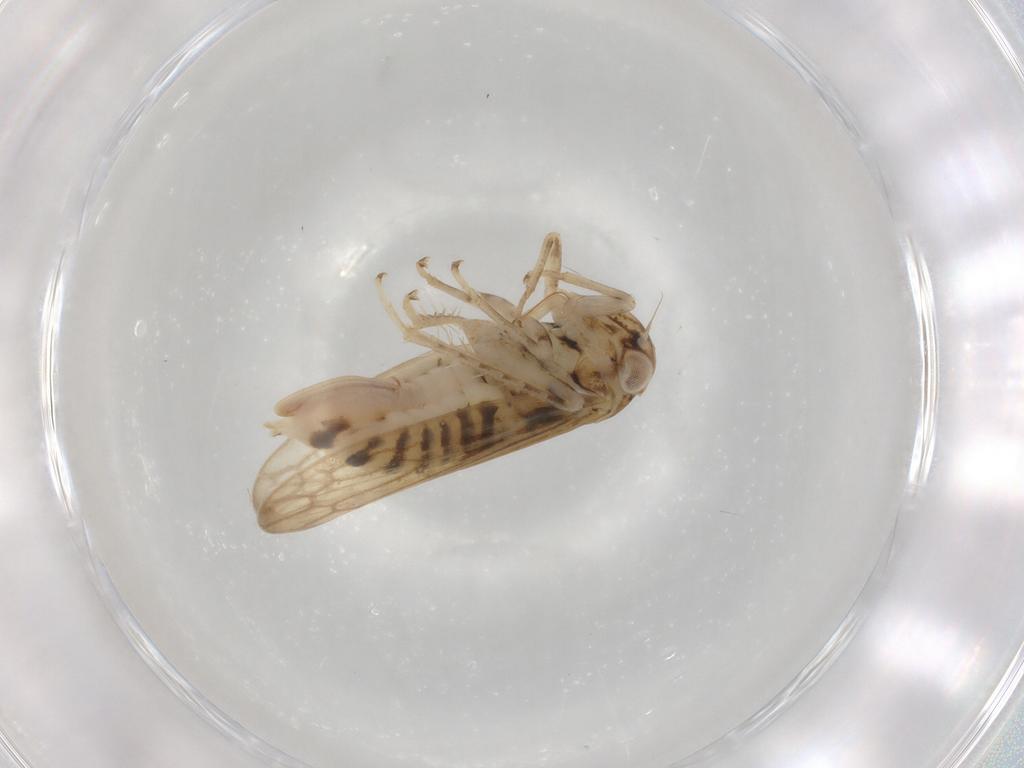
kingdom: Animalia
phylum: Arthropoda
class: Insecta
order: Hemiptera
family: Cicadellidae
